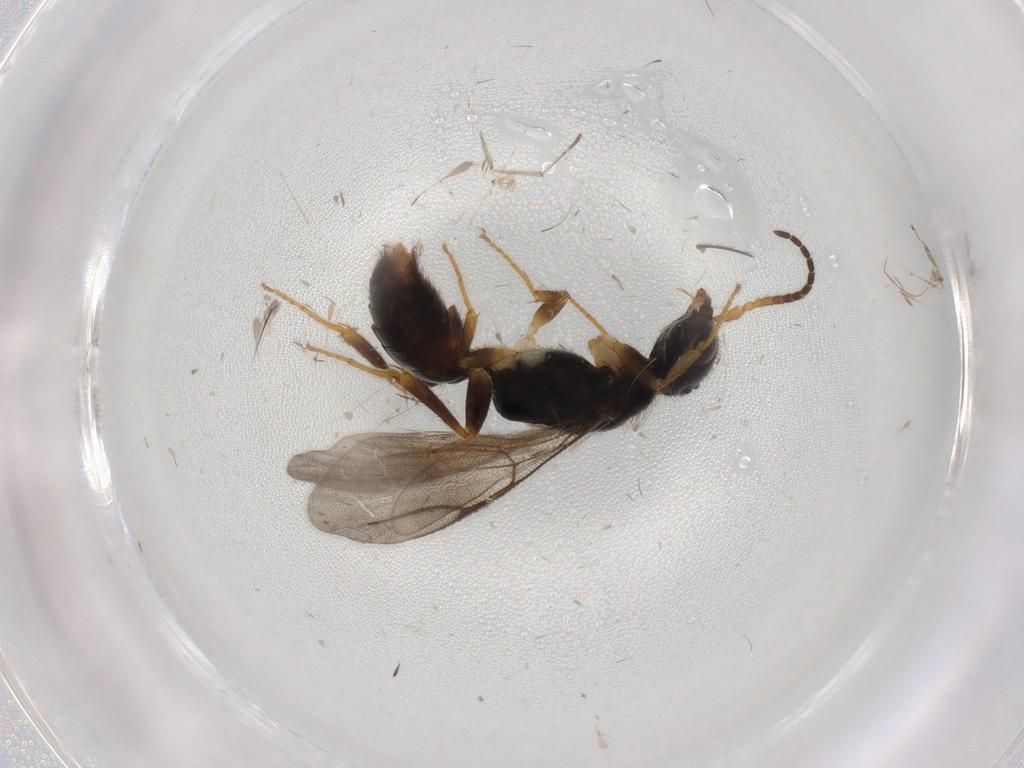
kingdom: Animalia
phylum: Arthropoda
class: Insecta
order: Hymenoptera
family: Bethylidae
